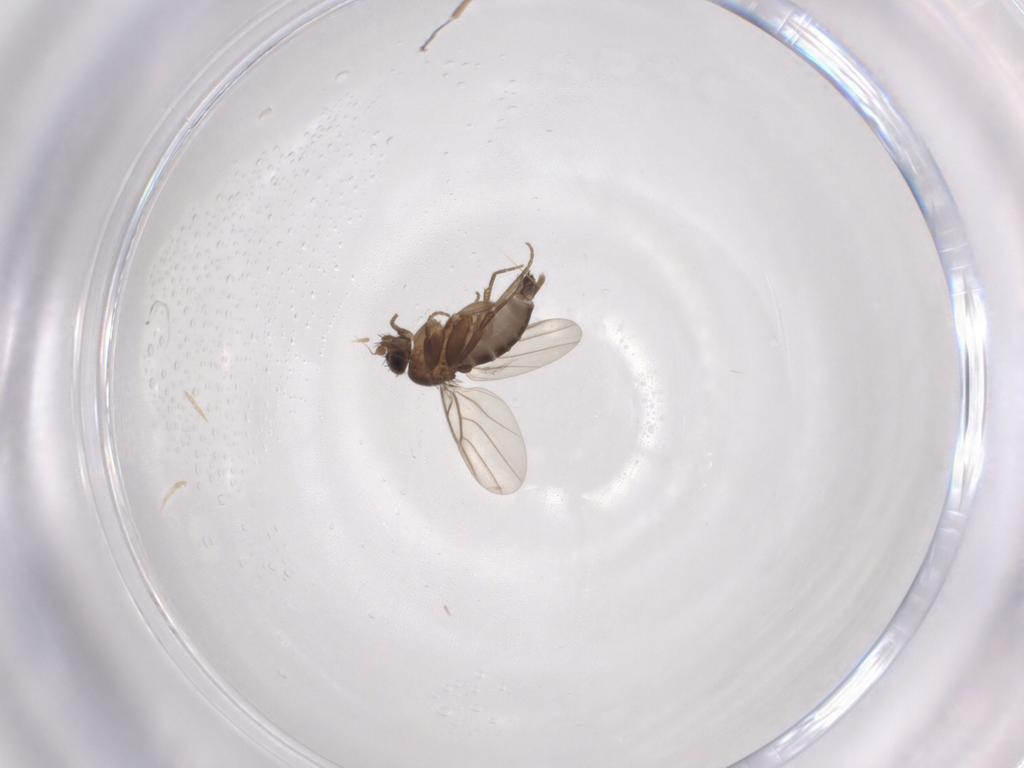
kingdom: Animalia
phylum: Arthropoda
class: Insecta
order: Diptera
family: Phoridae
